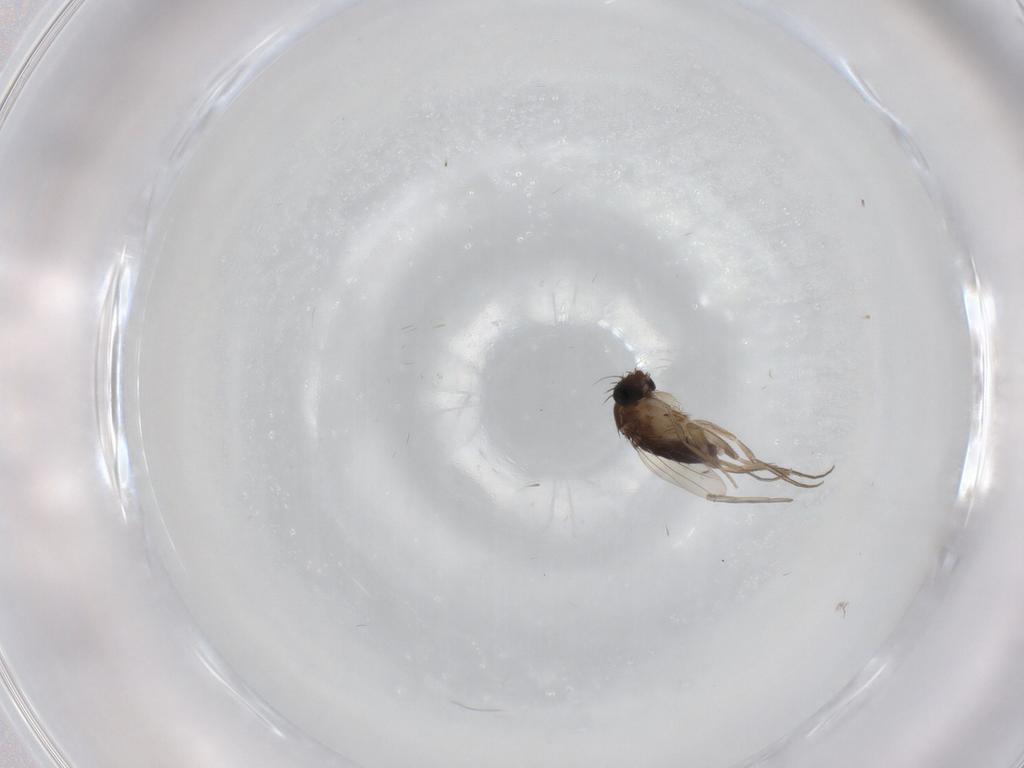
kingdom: Animalia
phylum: Arthropoda
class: Insecta
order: Diptera
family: Phoridae
